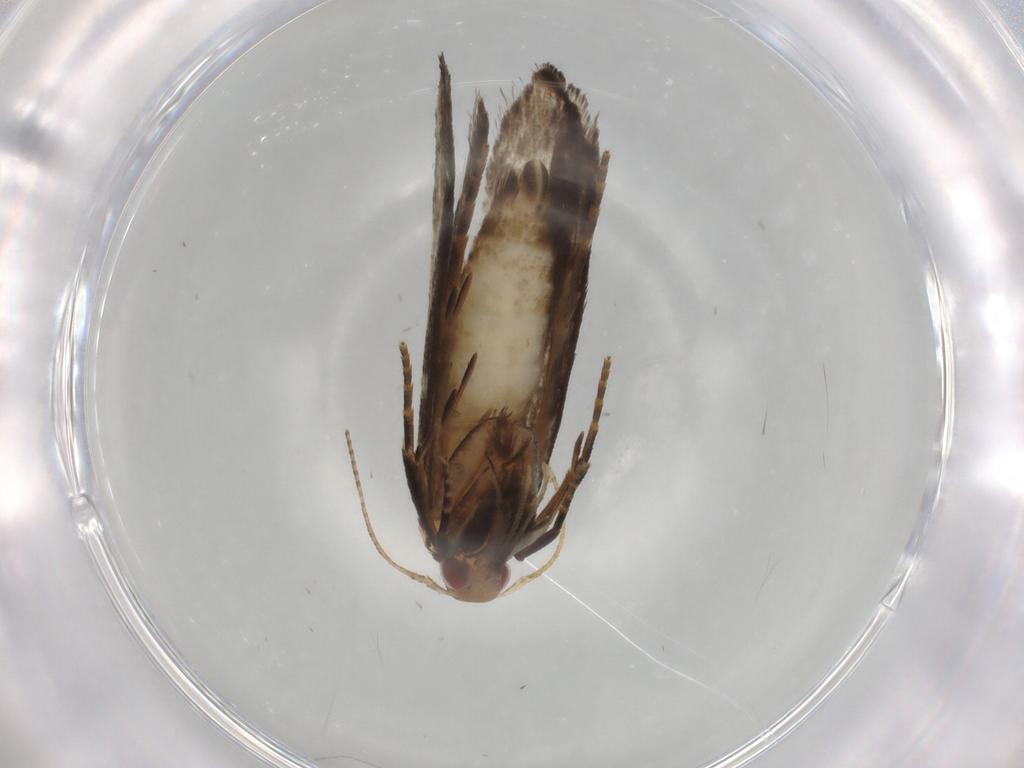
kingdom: Animalia
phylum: Arthropoda
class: Insecta
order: Lepidoptera
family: Gelechiidae
